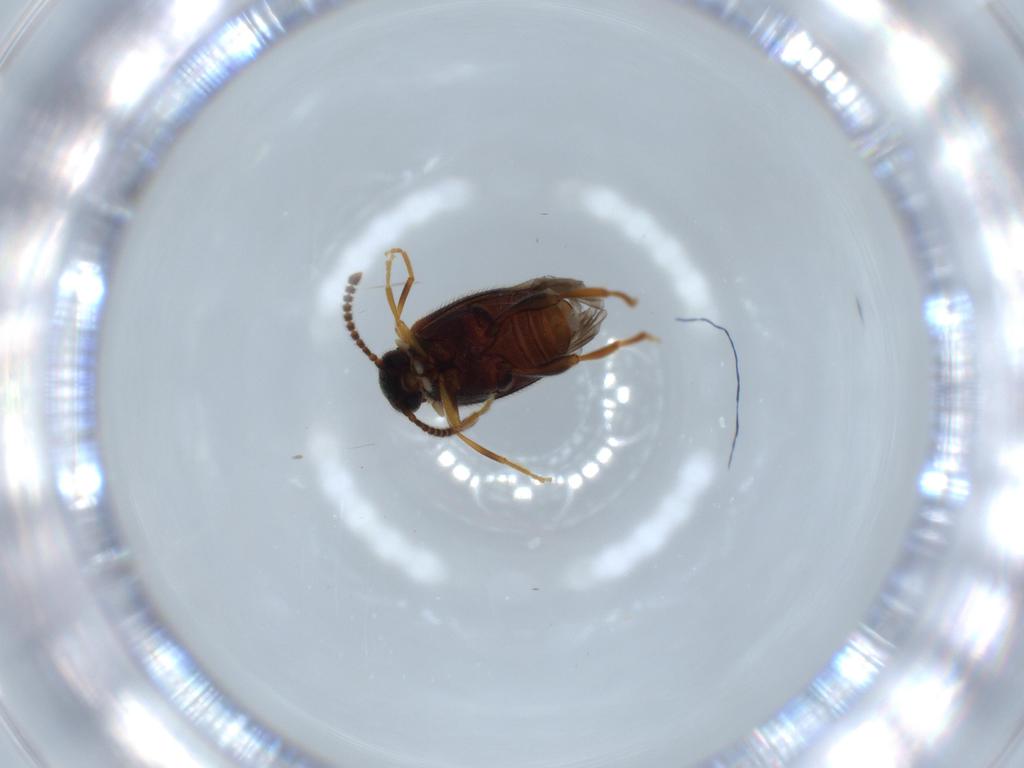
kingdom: Animalia
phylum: Arthropoda
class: Insecta
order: Coleoptera
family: Aderidae
